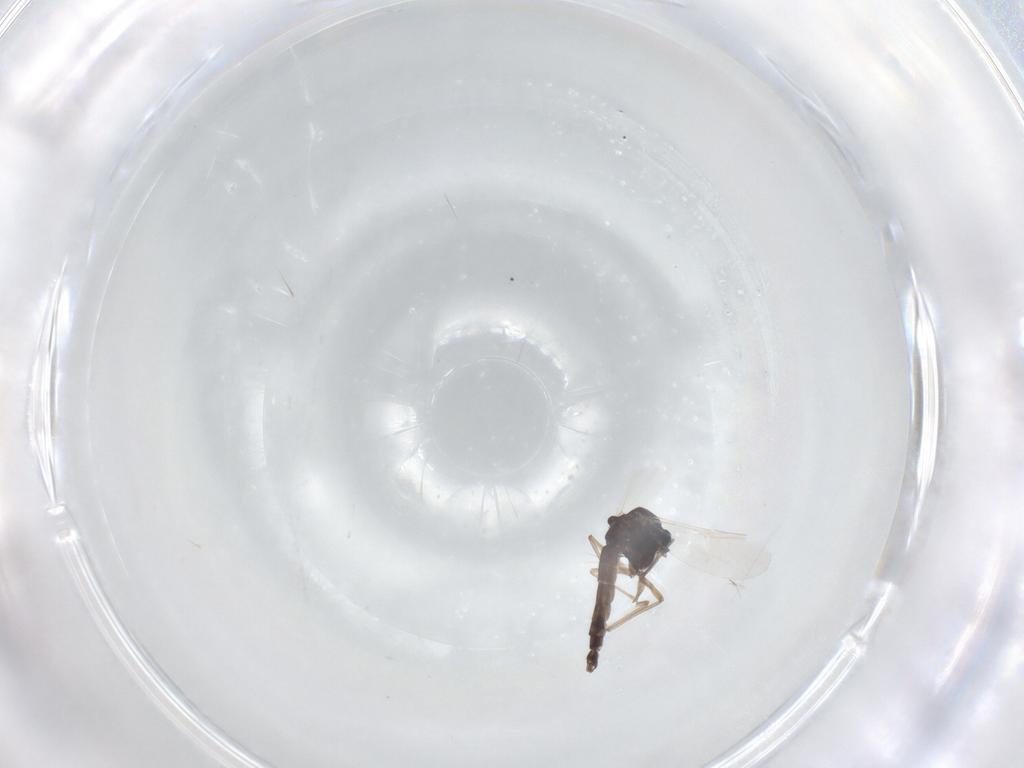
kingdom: Animalia
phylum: Arthropoda
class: Insecta
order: Diptera
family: Chironomidae
